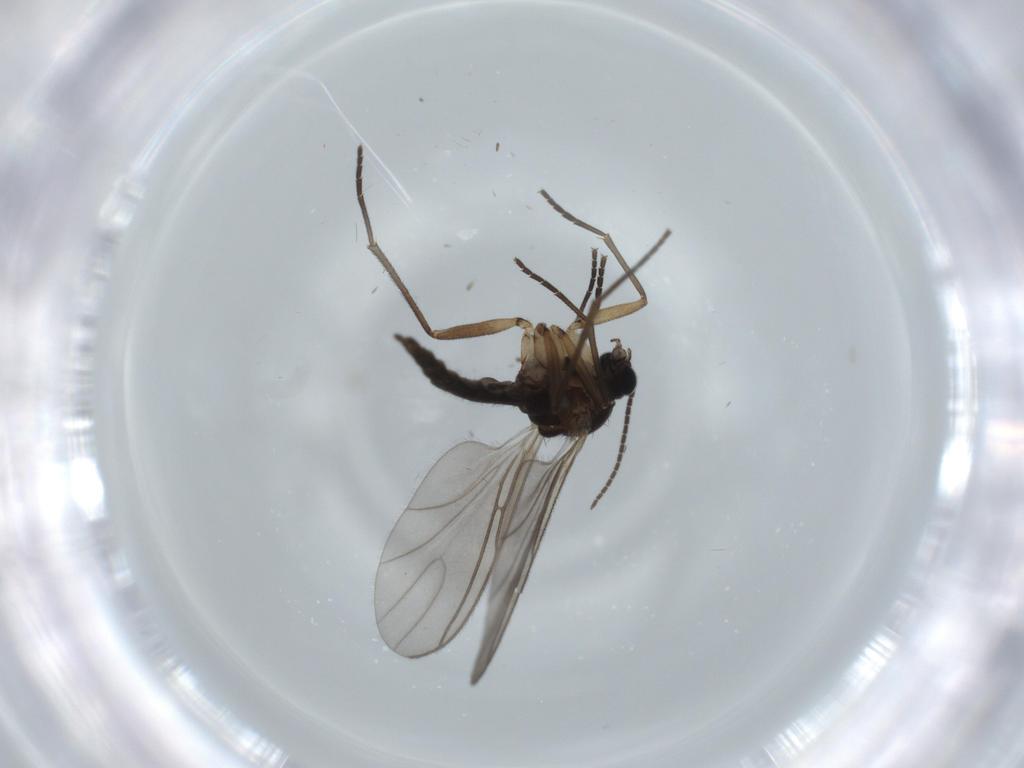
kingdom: Animalia
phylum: Arthropoda
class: Insecta
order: Diptera
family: Sciaridae
